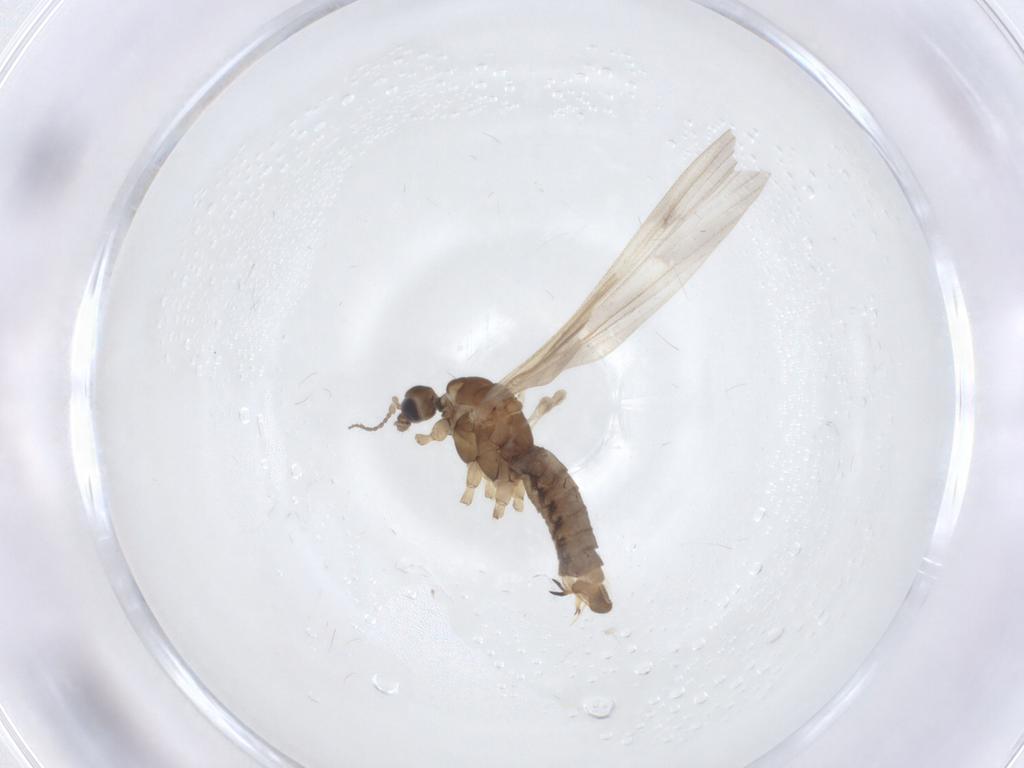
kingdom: Animalia
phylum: Arthropoda
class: Insecta
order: Diptera
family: Limoniidae
